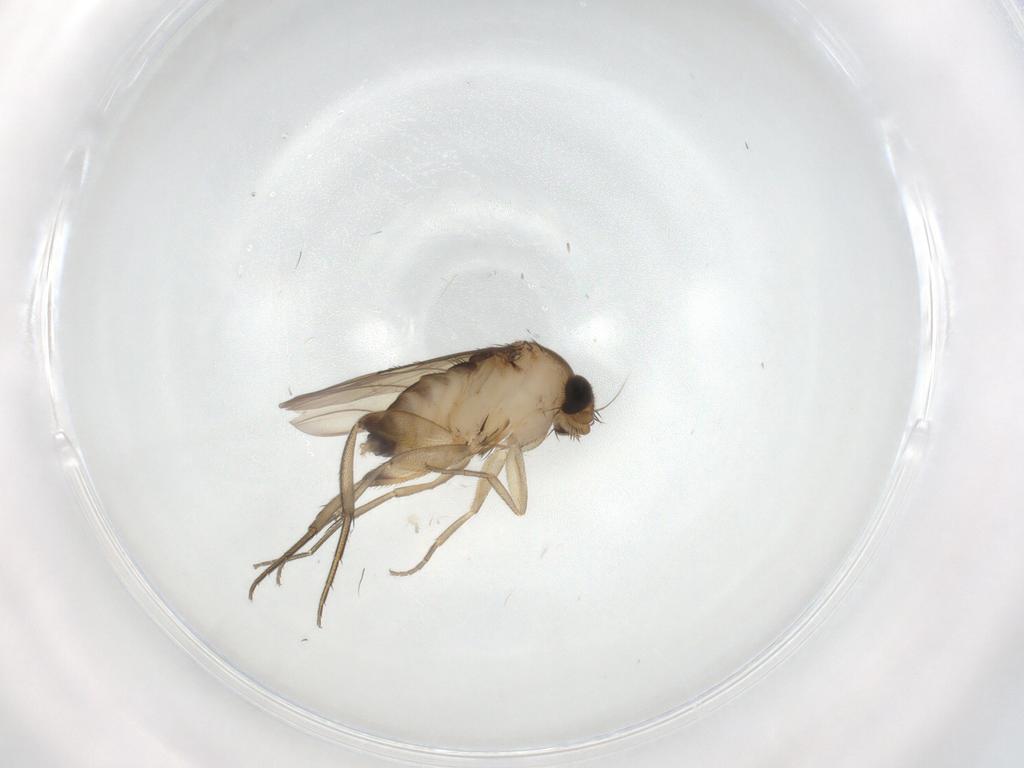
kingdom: Animalia
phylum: Arthropoda
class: Insecta
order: Diptera
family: Phoridae
